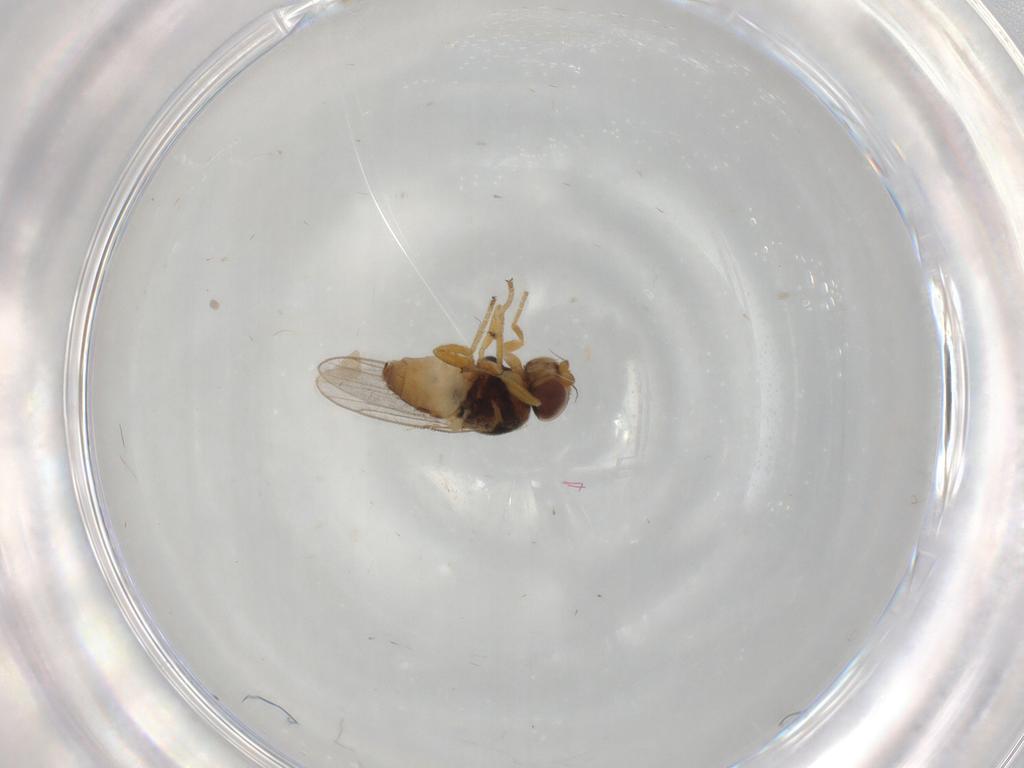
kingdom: Animalia
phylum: Arthropoda
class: Insecta
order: Diptera
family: Chloropidae
